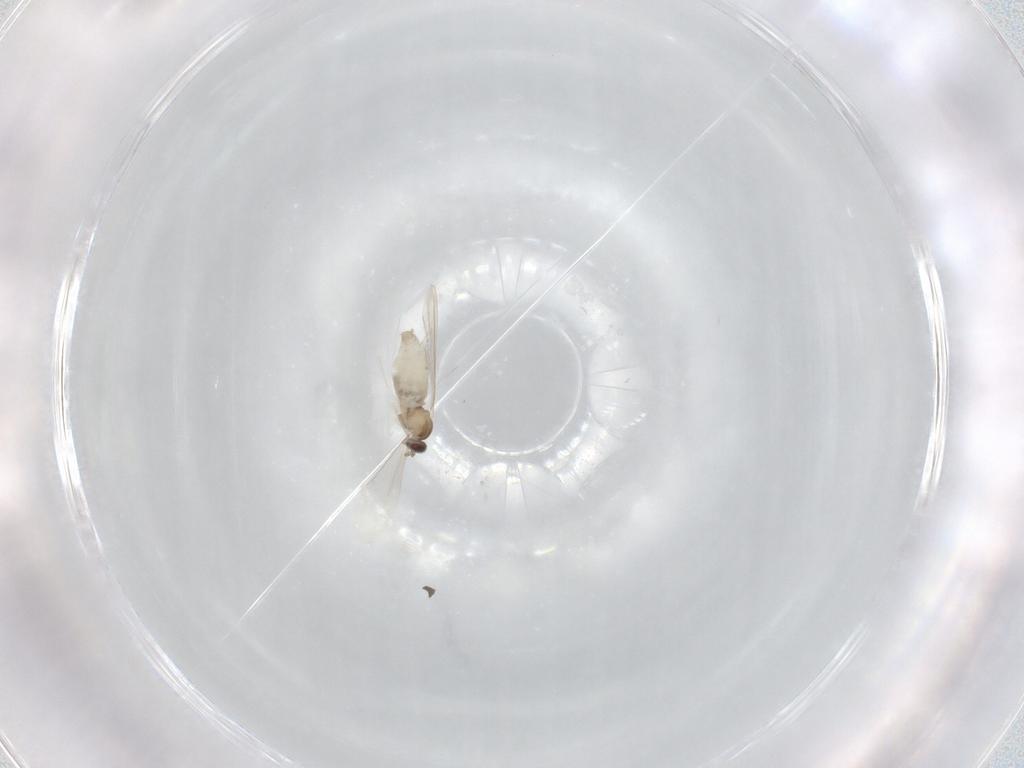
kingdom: Animalia
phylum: Arthropoda
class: Insecta
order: Diptera
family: Cecidomyiidae
